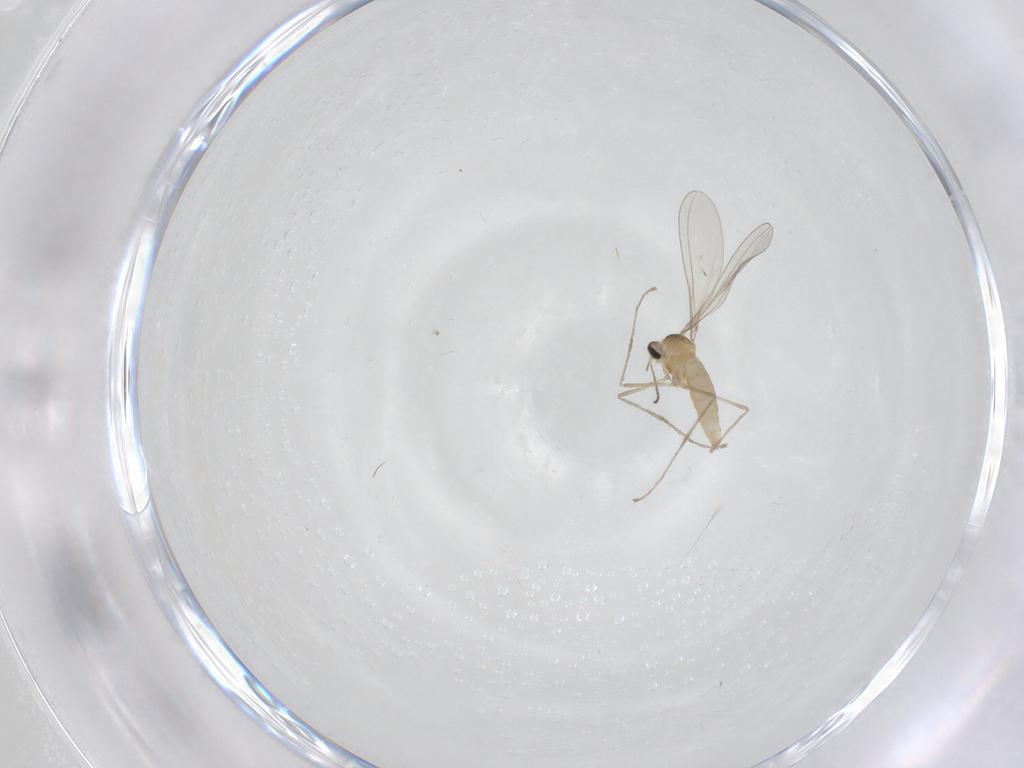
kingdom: Animalia
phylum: Arthropoda
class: Insecta
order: Diptera
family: Cecidomyiidae
